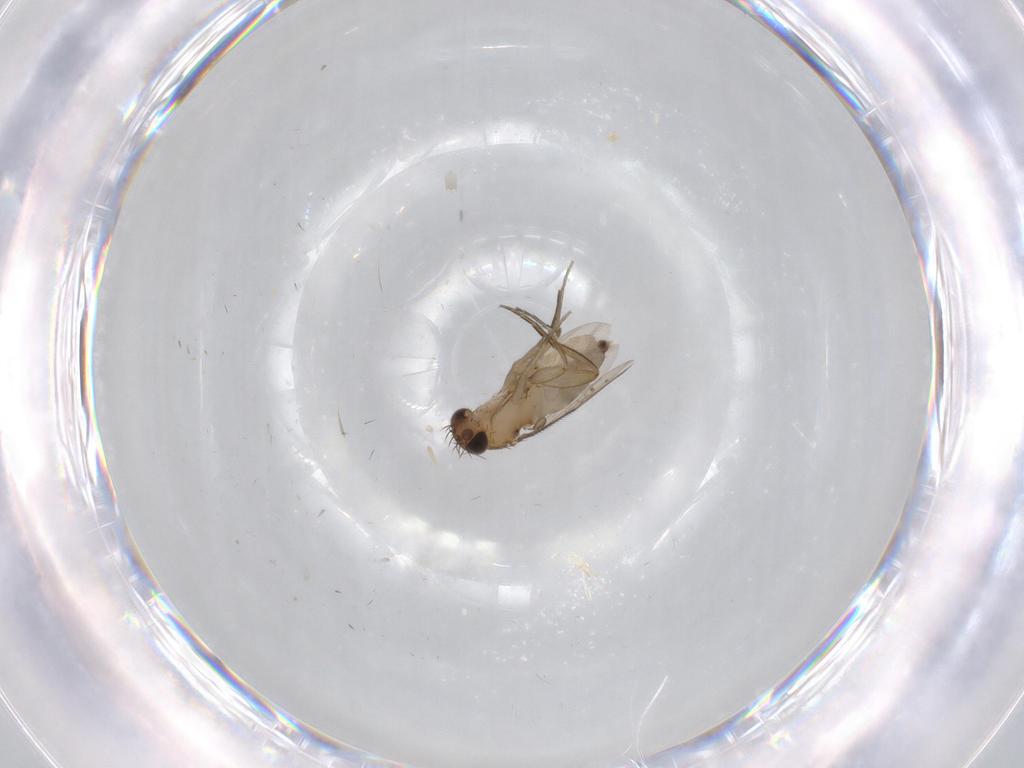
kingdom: Animalia
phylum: Arthropoda
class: Insecta
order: Diptera
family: Phoridae
